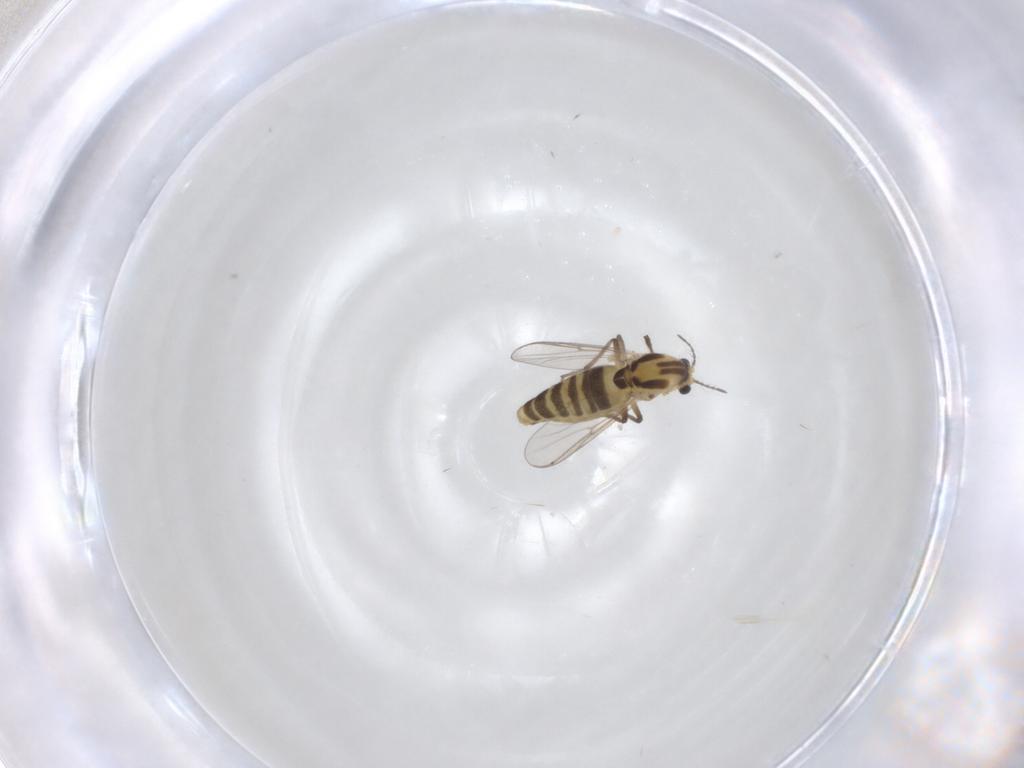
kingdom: Animalia
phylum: Arthropoda
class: Insecta
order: Diptera
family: Chironomidae
